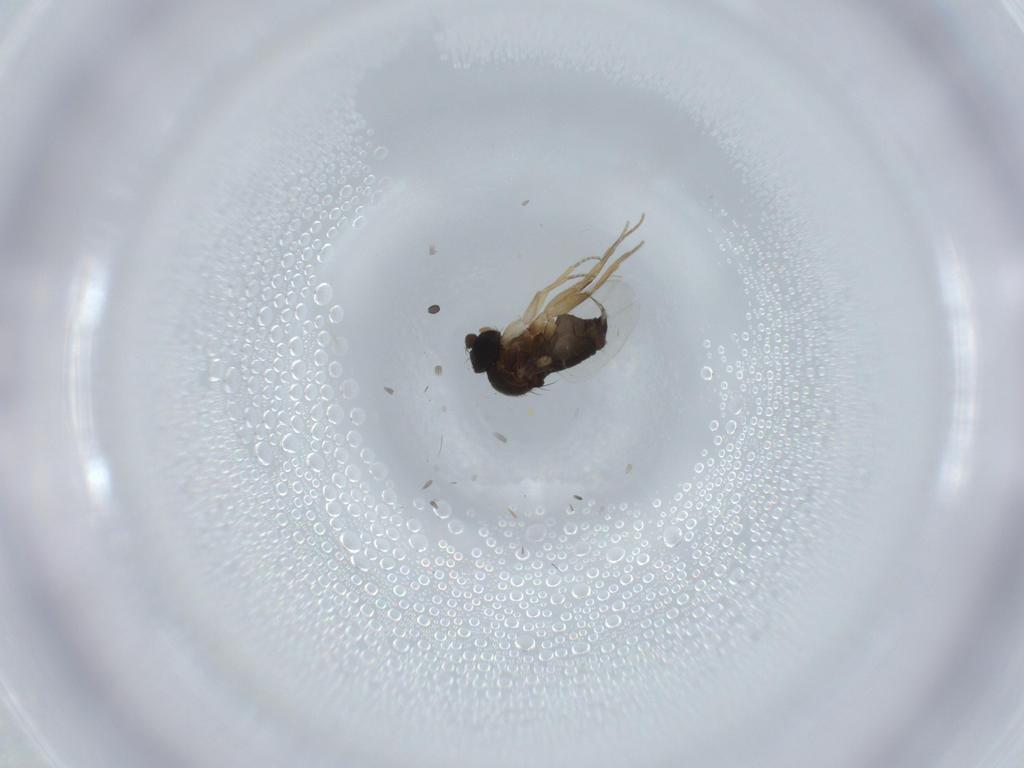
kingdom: Animalia
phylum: Arthropoda
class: Insecta
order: Diptera
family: Phoridae
